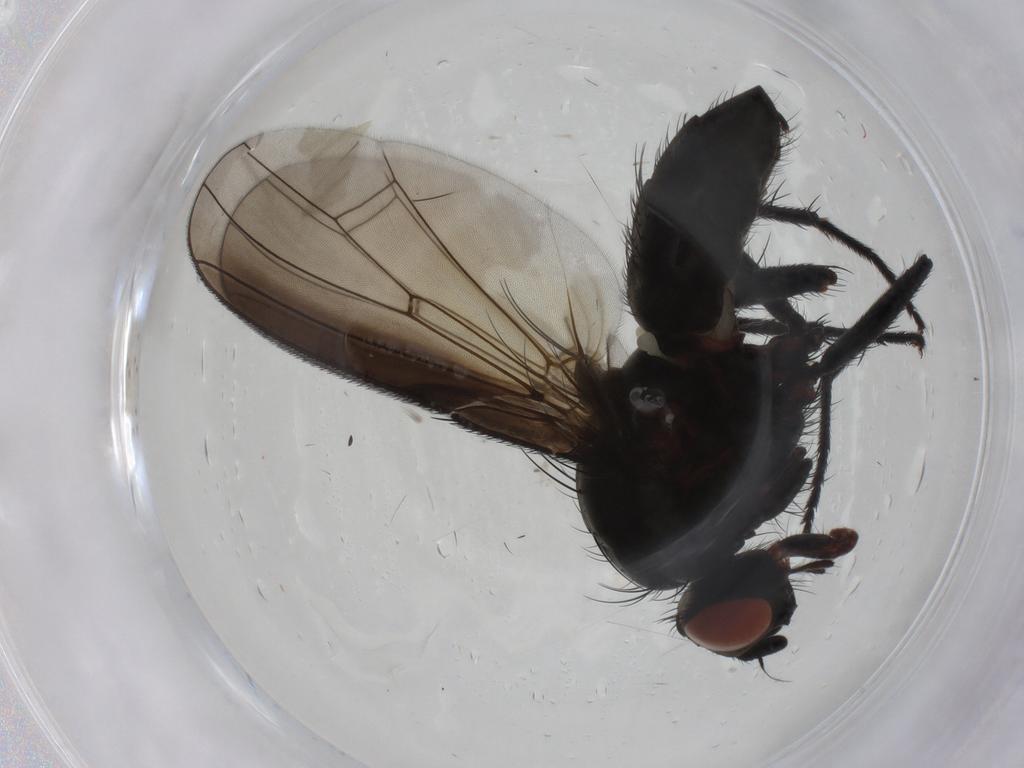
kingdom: Animalia
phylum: Arthropoda
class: Insecta
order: Diptera
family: Anthomyiidae
